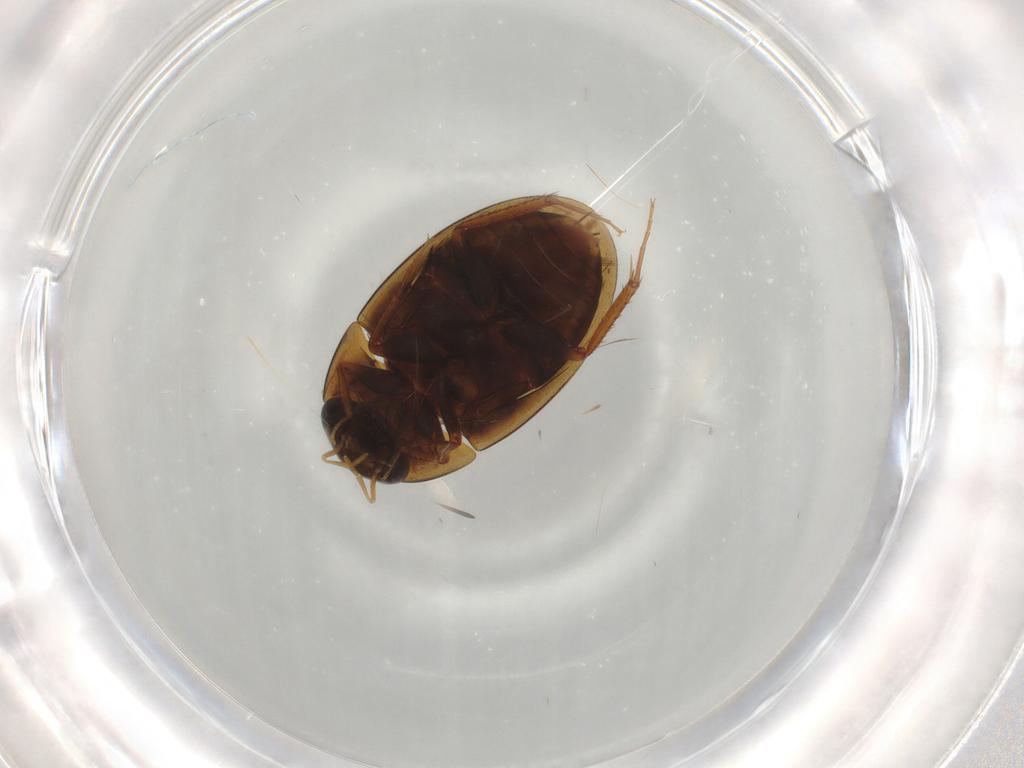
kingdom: Animalia
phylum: Arthropoda
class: Insecta
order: Coleoptera
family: Hydrophilidae
